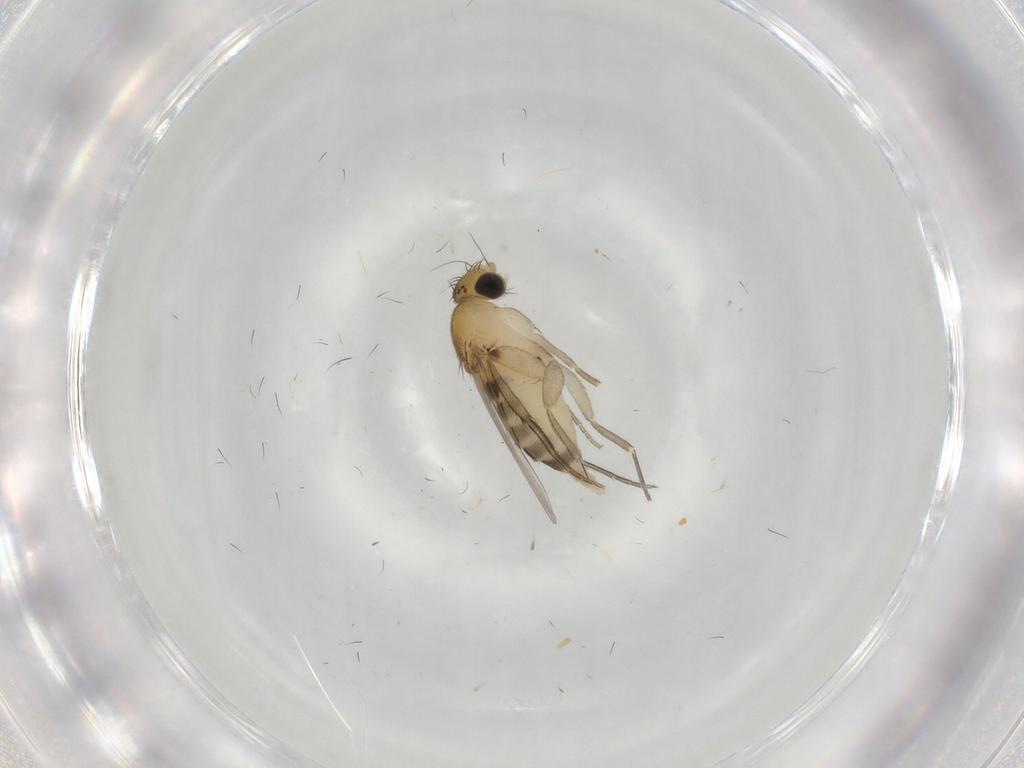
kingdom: Animalia
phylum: Arthropoda
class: Insecta
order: Diptera
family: Tabanidae
